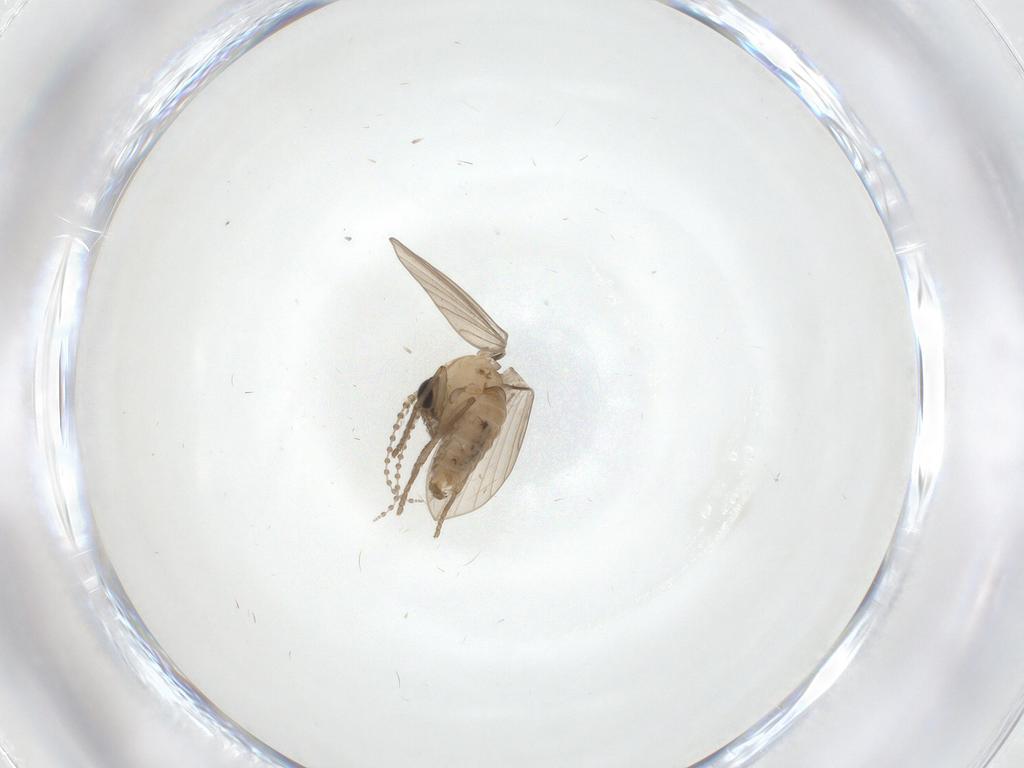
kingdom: Animalia
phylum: Arthropoda
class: Insecta
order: Diptera
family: Psychodidae
